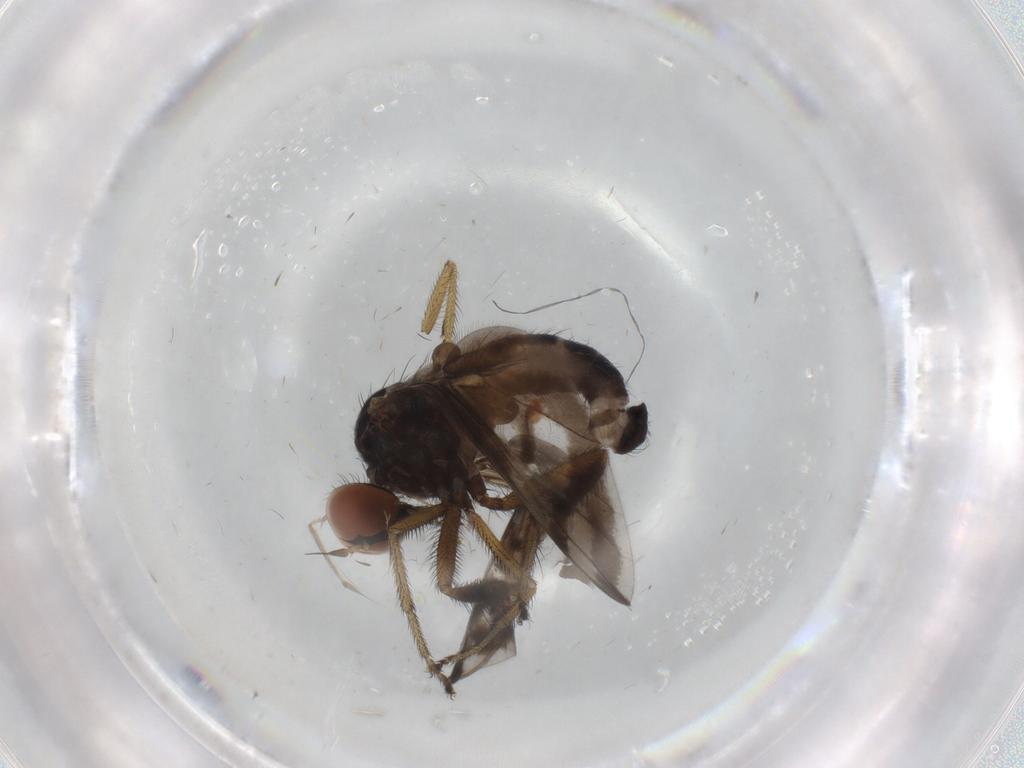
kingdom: Animalia
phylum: Arthropoda
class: Insecta
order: Diptera
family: Empididae
